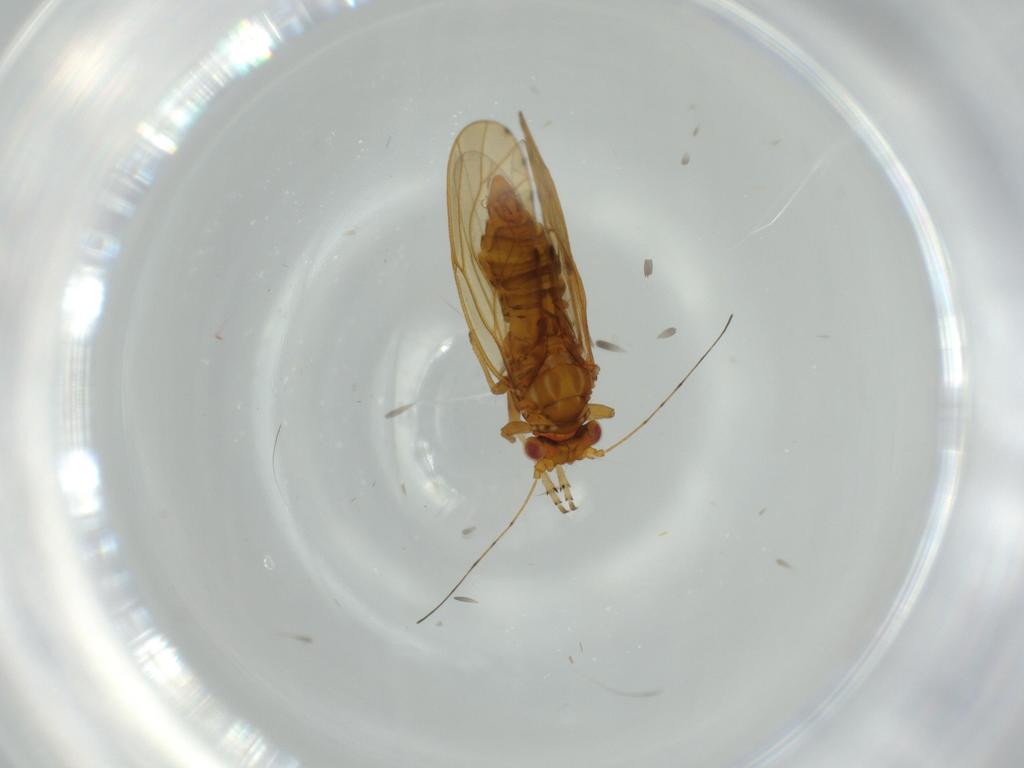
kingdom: Animalia
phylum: Arthropoda
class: Insecta
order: Hemiptera
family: Psylloidea_incertae_sedis
